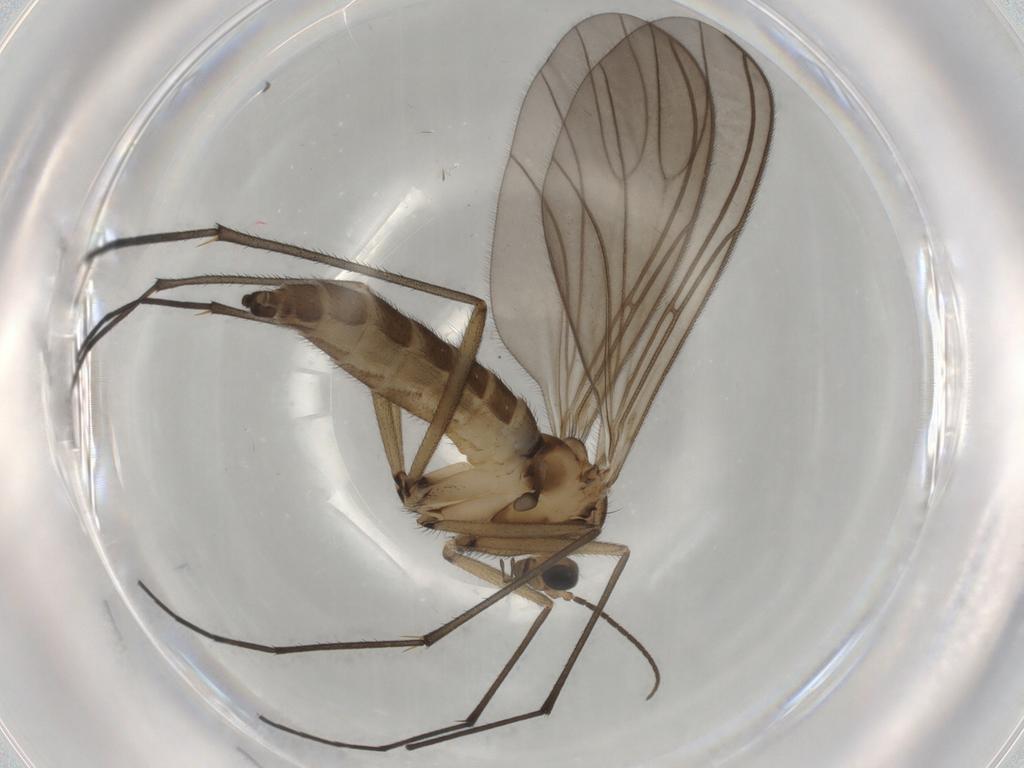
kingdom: Animalia
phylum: Arthropoda
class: Insecta
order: Diptera
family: Sciaridae
